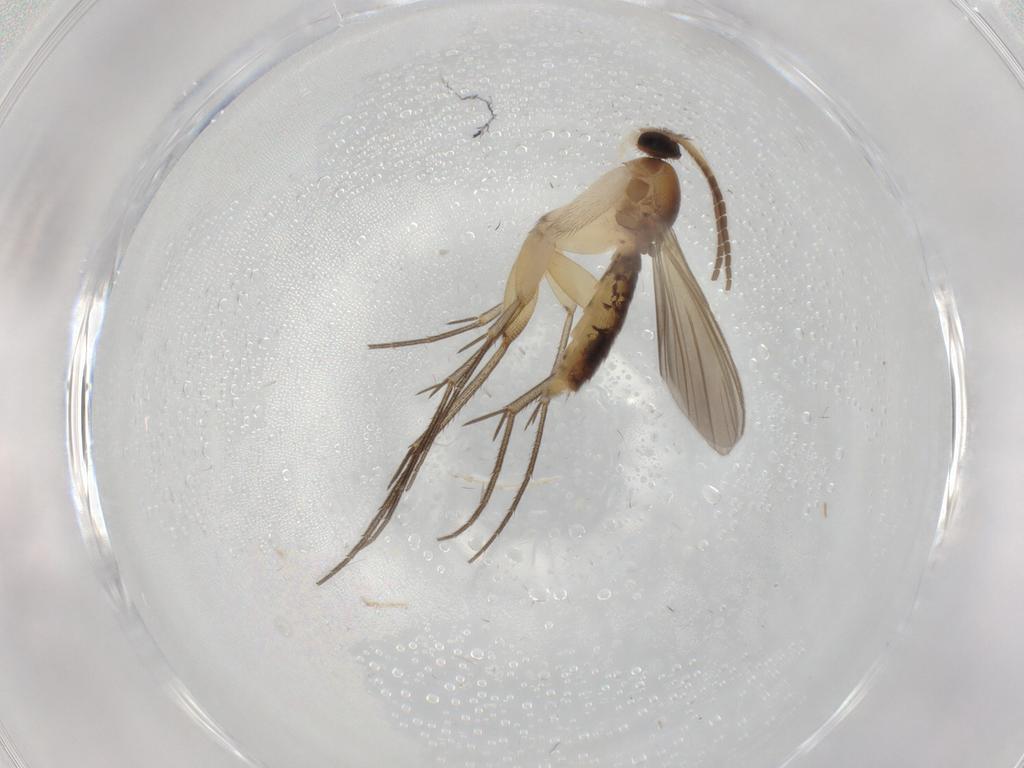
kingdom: Animalia
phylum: Arthropoda
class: Insecta
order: Diptera
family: Mycetophilidae
